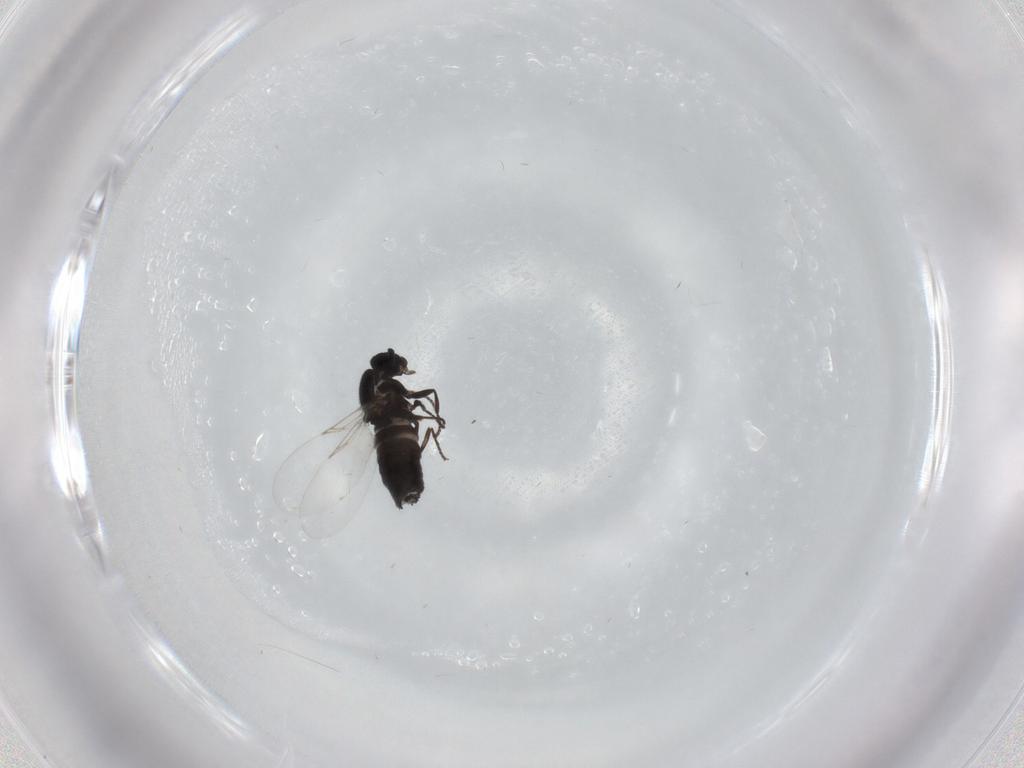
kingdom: Animalia
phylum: Arthropoda
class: Insecta
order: Diptera
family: Scatopsidae
